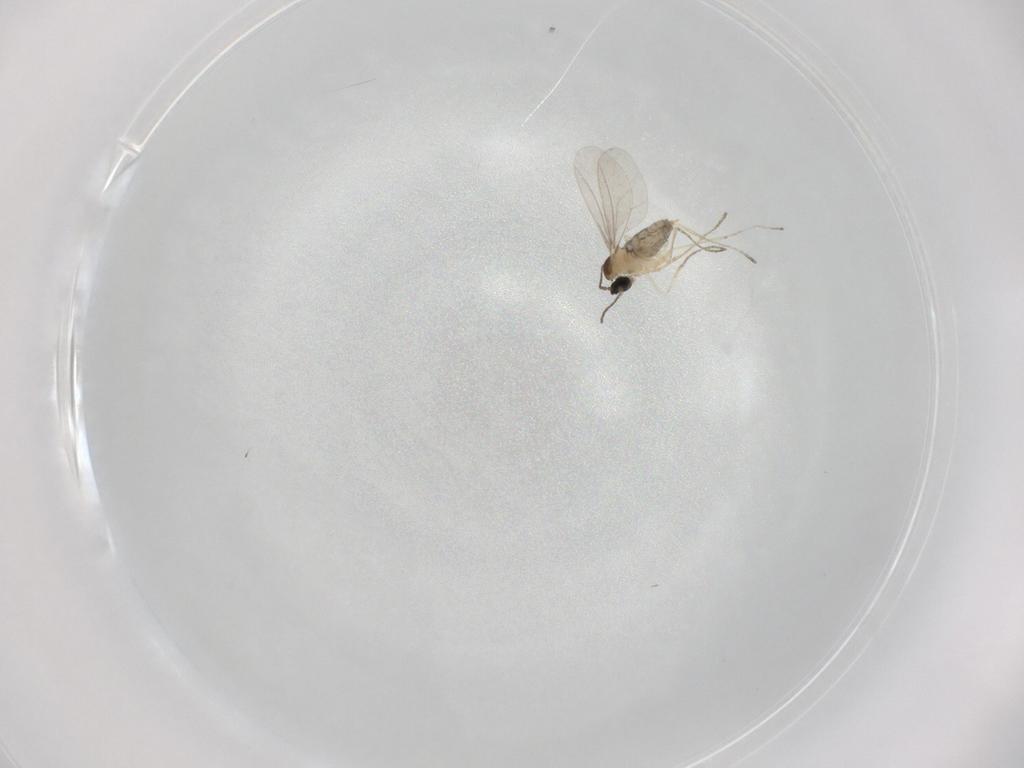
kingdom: Animalia
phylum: Arthropoda
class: Insecta
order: Diptera
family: Cecidomyiidae
